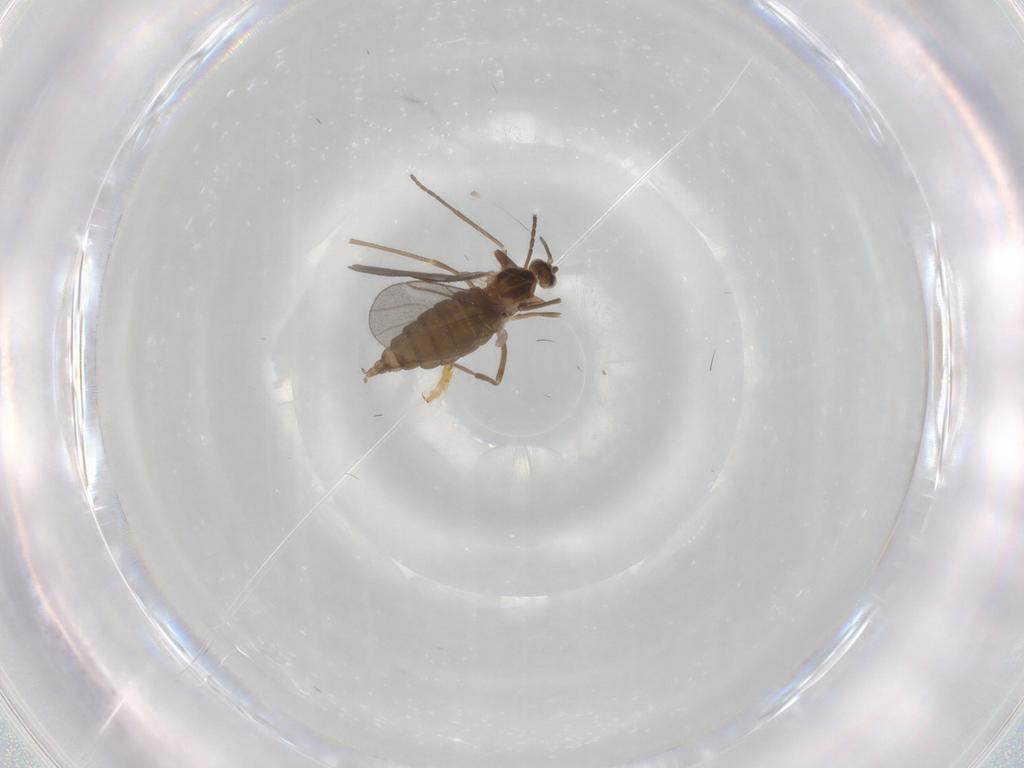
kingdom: Animalia
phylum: Arthropoda
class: Insecta
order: Diptera
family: Cecidomyiidae
